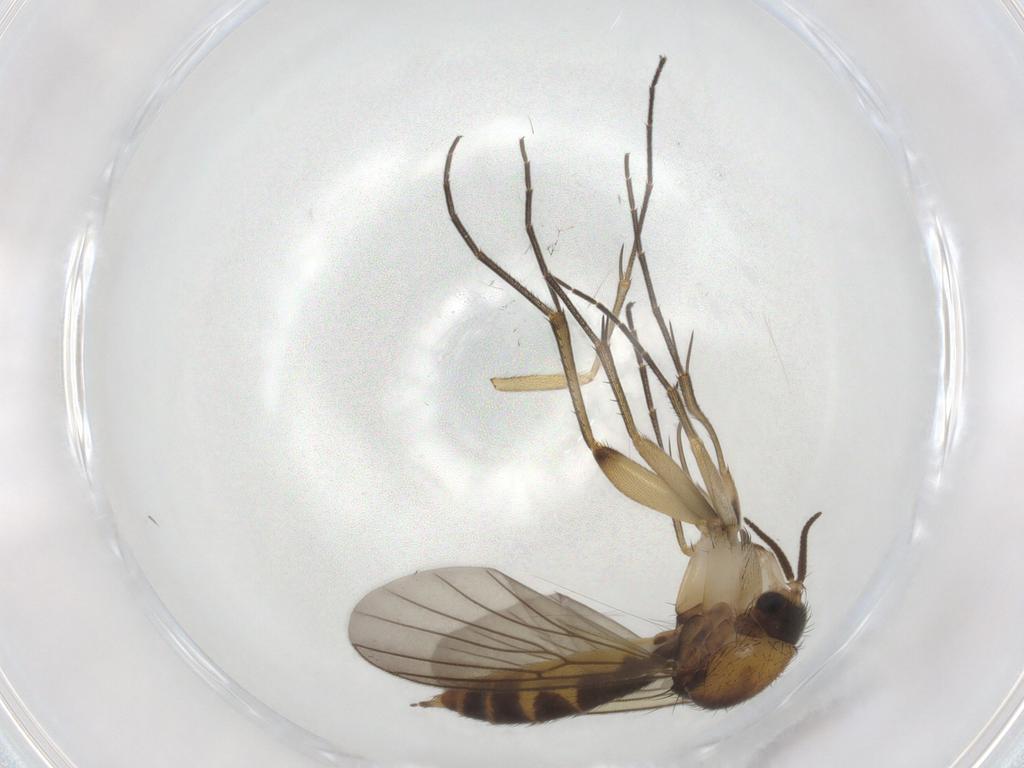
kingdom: Animalia
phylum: Arthropoda
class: Insecta
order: Diptera
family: Mycetophilidae
